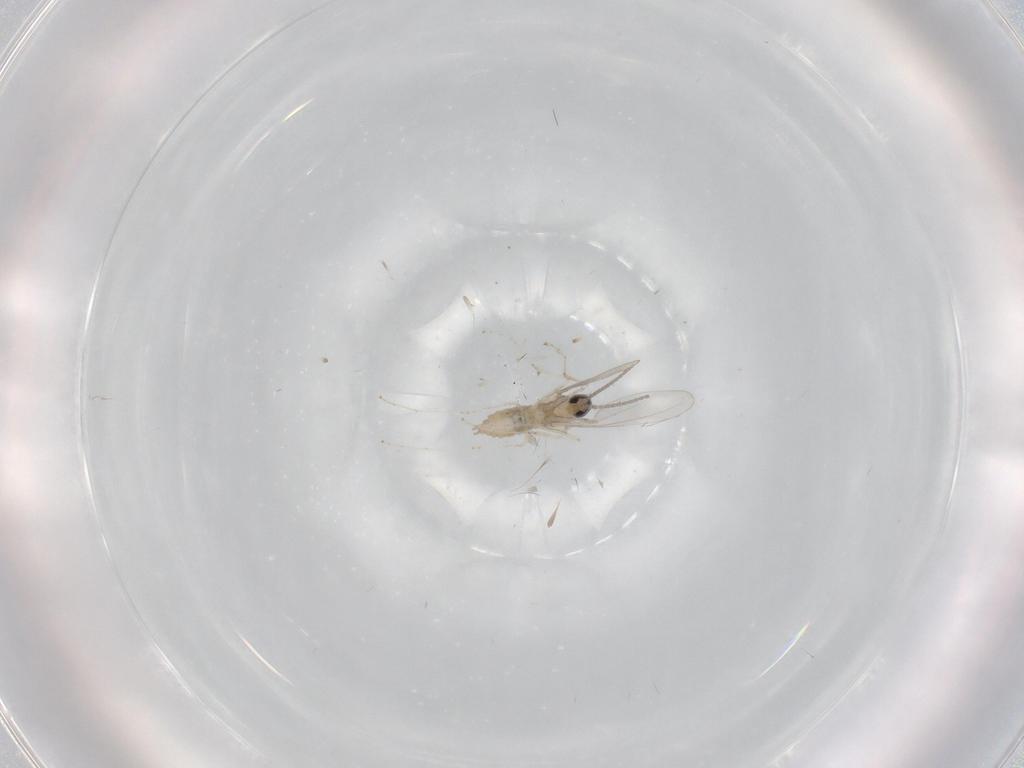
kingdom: Animalia
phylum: Arthropoda
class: Insecta
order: Diptera
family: Cecidomyiidae
